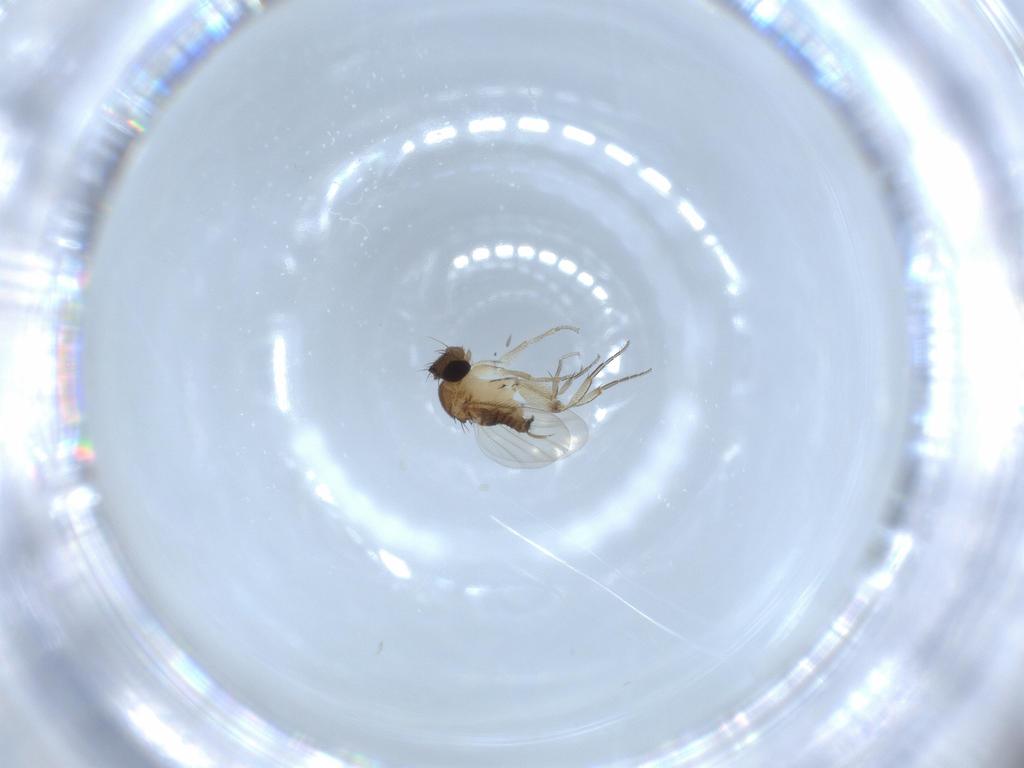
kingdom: Animalia
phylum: Arthropoda
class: Insecta
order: Diptera
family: Phoridae
